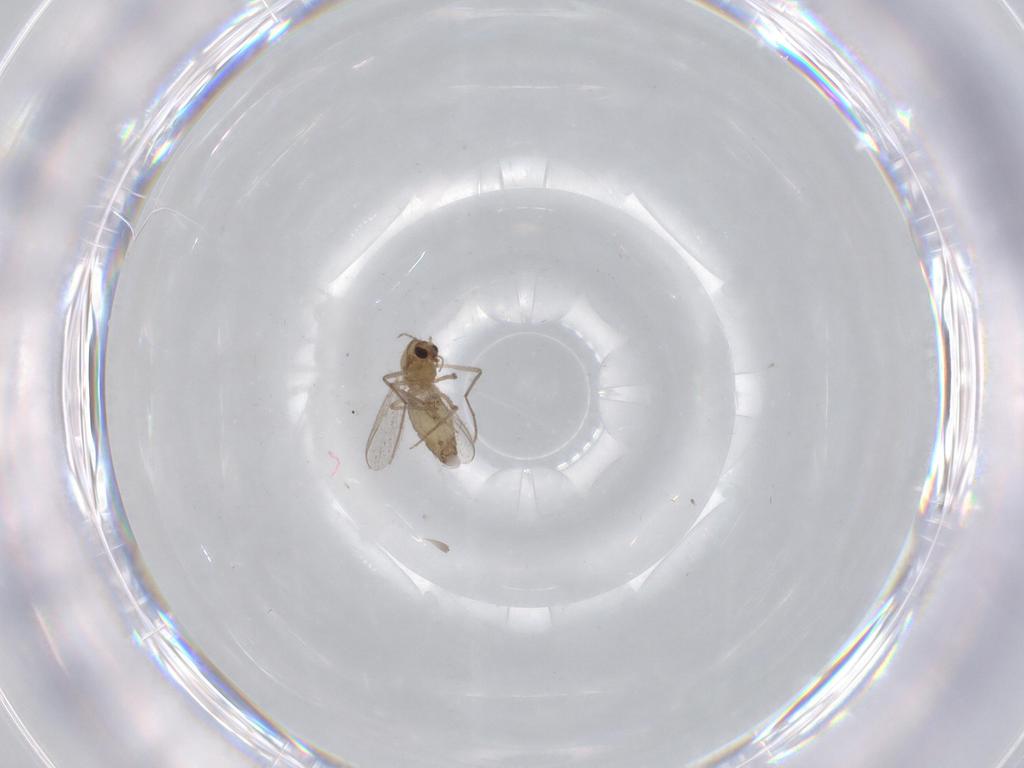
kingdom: Animalia
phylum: Arthropoda
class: Insecta
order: Diptera
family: Chironomidae
